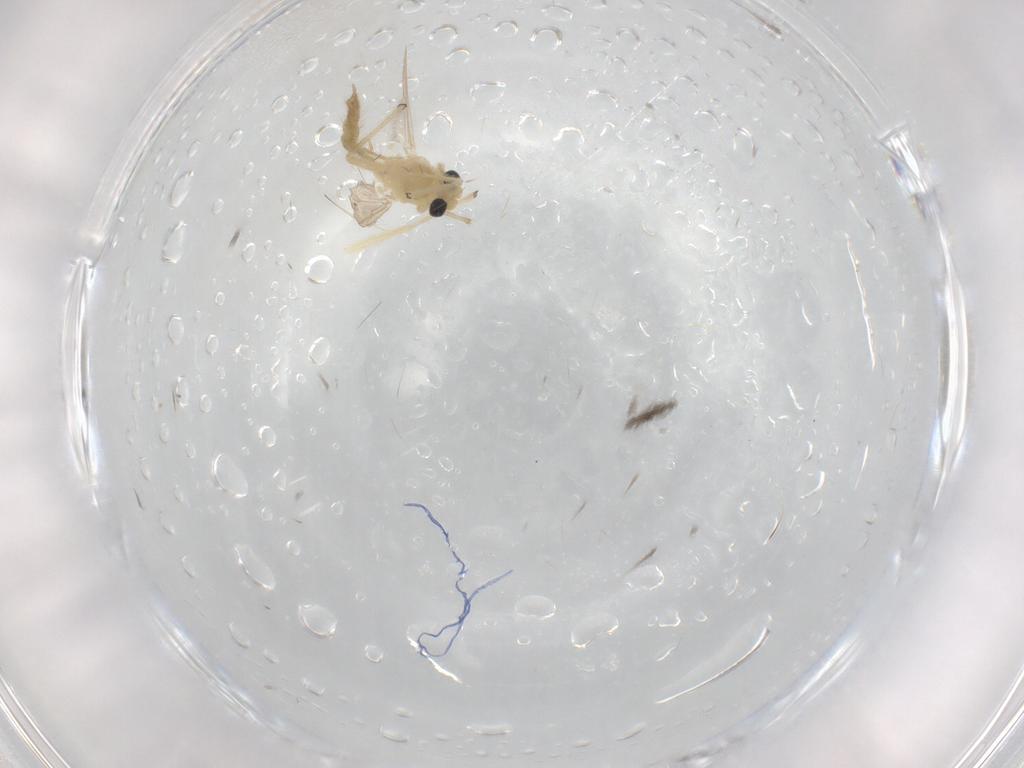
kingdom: Animalia
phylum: Arthropoda
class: Insecta
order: Diptera
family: Chironomidae
